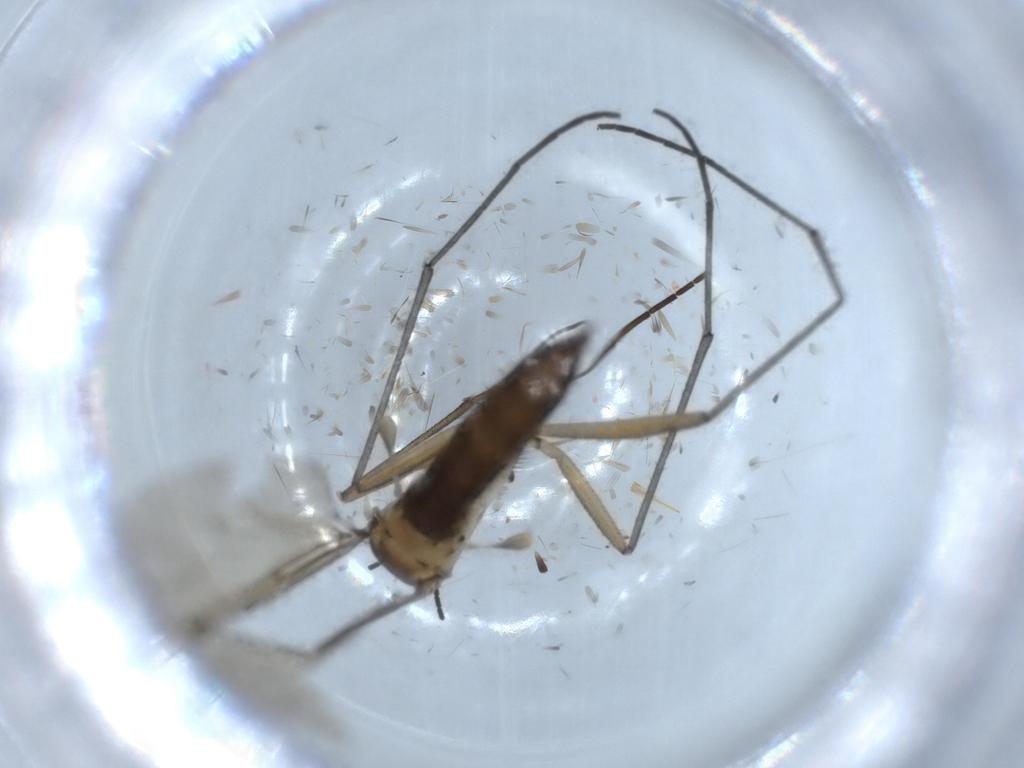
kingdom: Animalia
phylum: Arthropoda
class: Insecta
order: Diptera
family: Sciaridae
